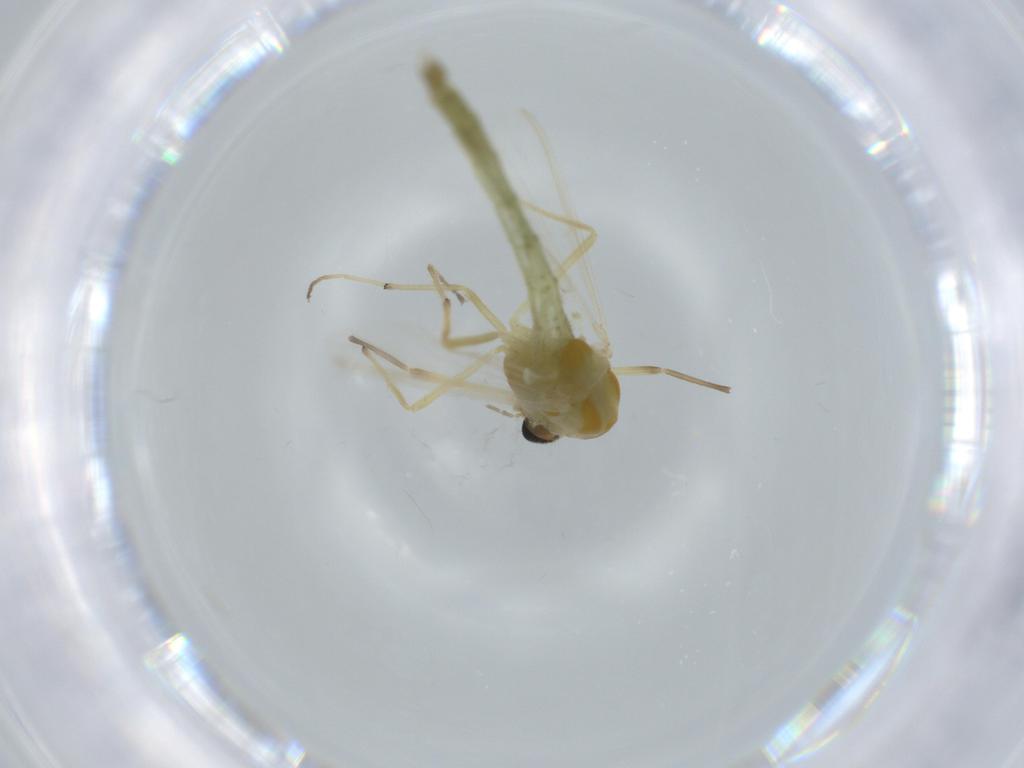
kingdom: Animalia
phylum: Arthropoda
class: Insecta
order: Diptera
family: Chironomidae
